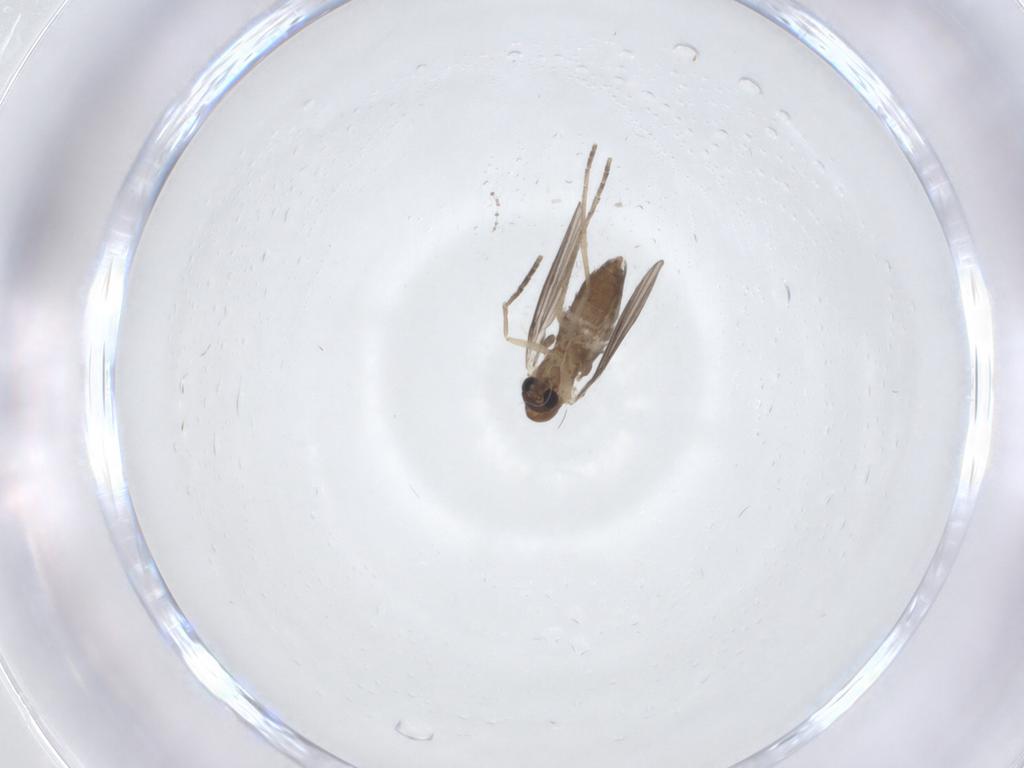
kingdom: Animalia
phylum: Arthropoda
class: Insecta
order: Diptera
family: Cecidomyiidae
